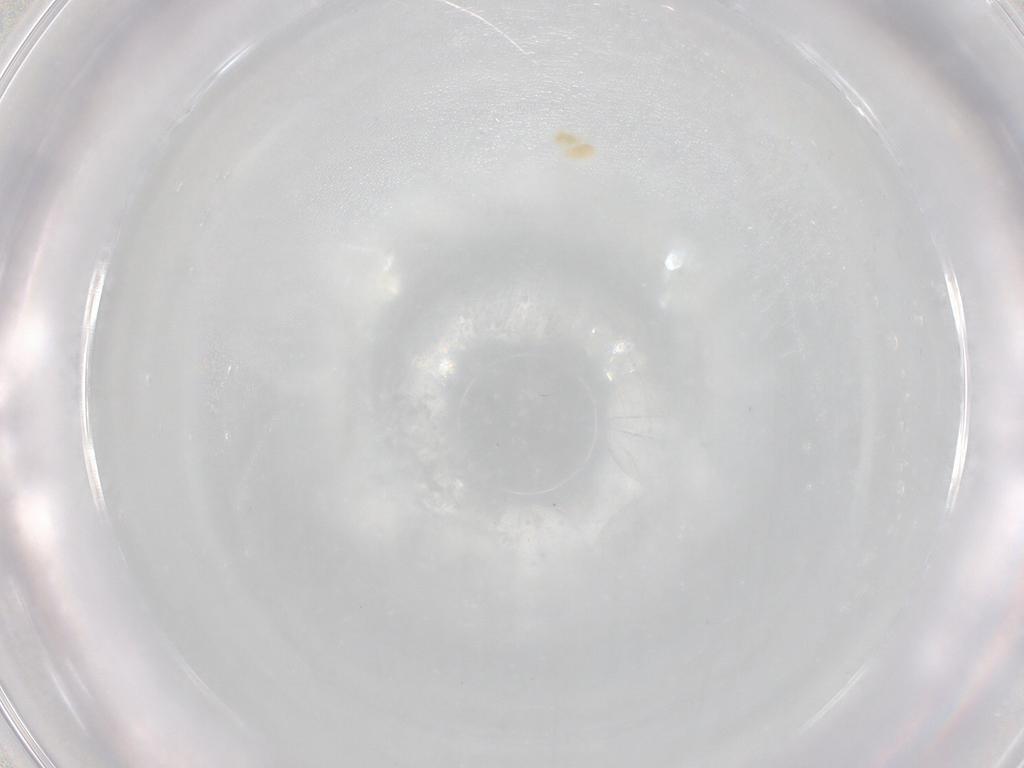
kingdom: Animalia
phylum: Arthropoda
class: Arachnida
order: Trombidiformes
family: Eupodidae
